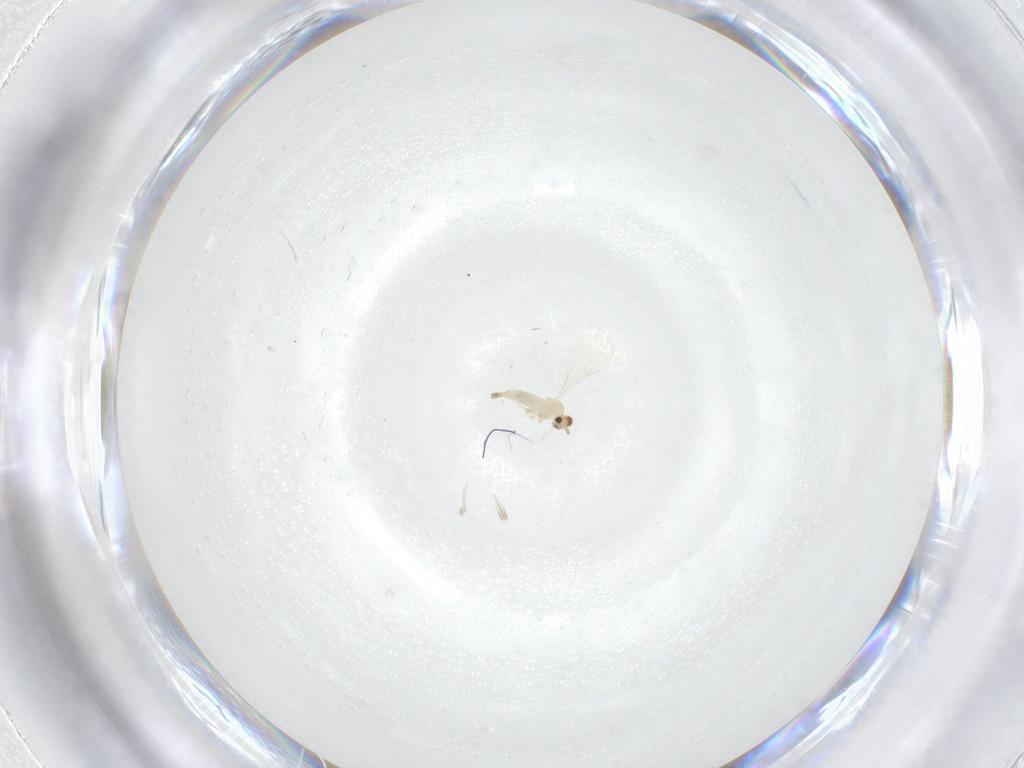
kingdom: Animalia
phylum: Arthropoda
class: Insecta
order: Diptera
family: Cecidomyiidae
